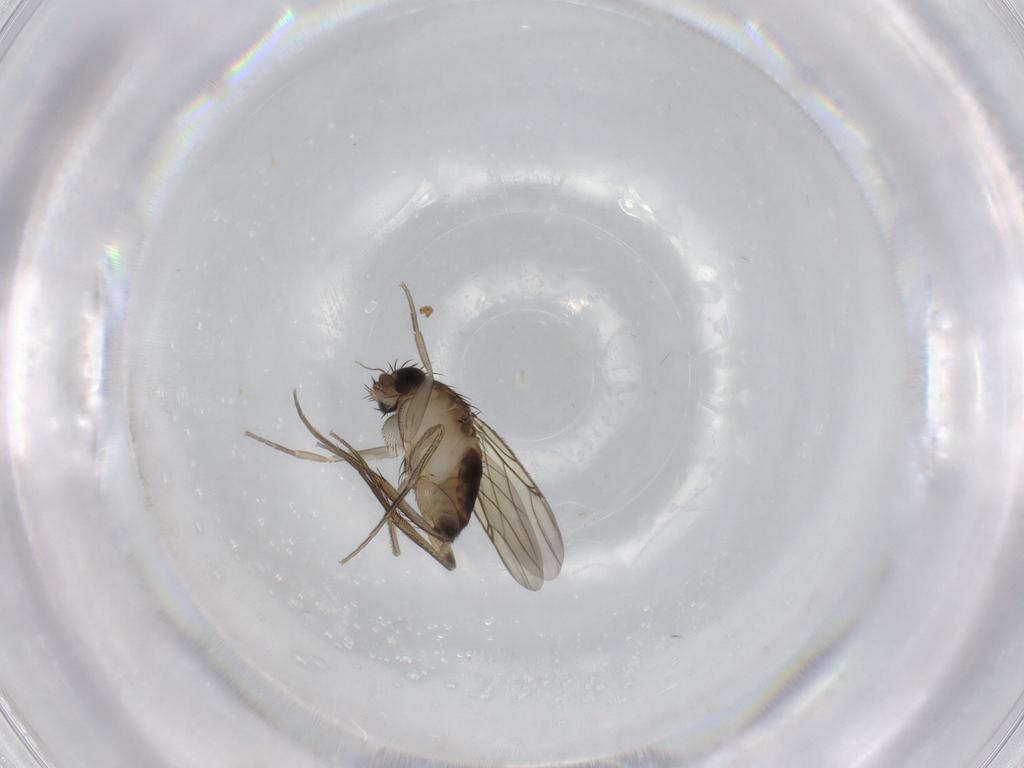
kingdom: Animalia
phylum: Arthropoda
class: Insecta
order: Diptera
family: Phoridae
